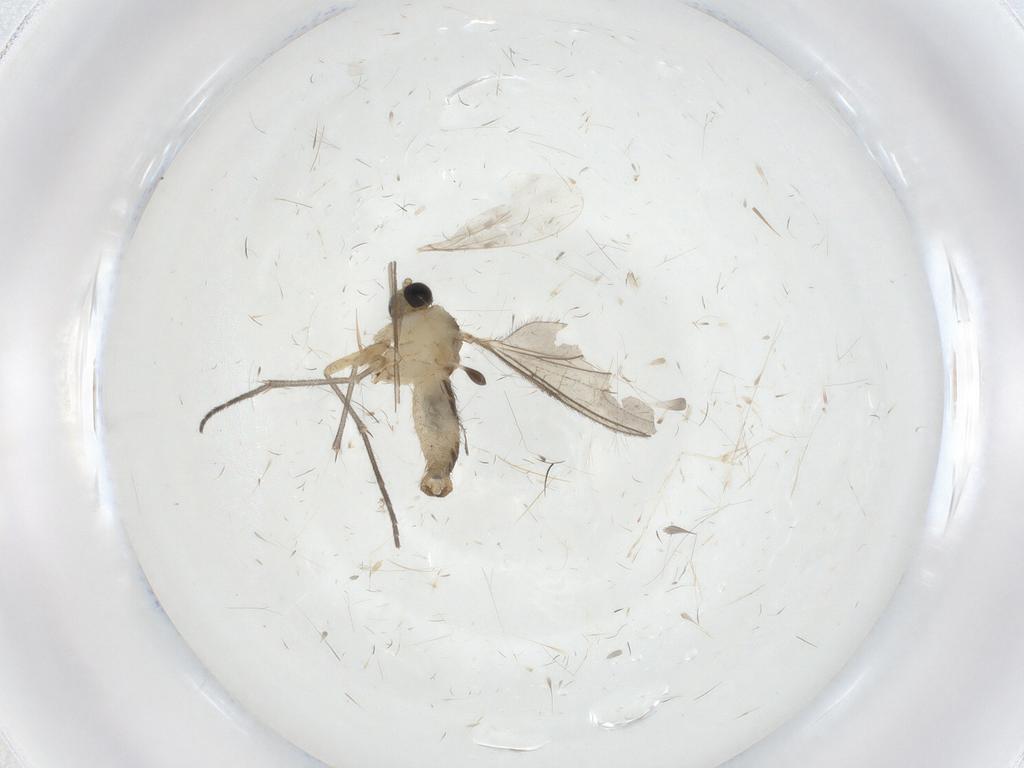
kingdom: Animalia
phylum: Arthropoda
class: Insecta
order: Diptera
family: Sciaridae
